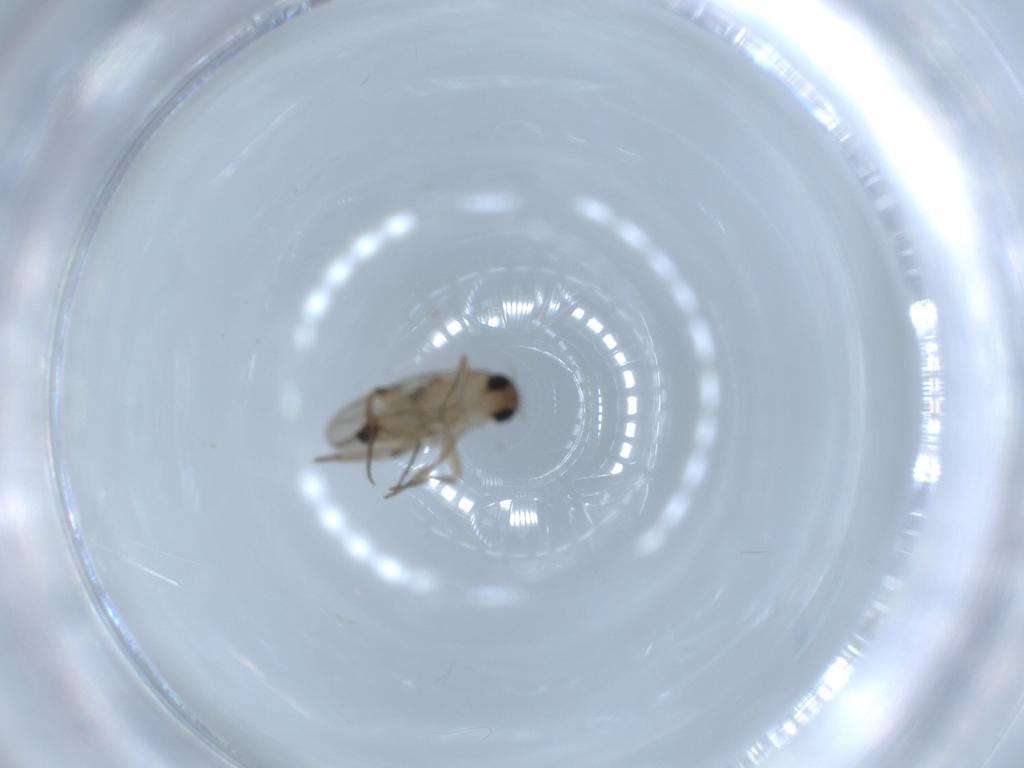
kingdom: Animalia
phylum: Arthropoda
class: Insecta
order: Diptera
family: Phoridae
